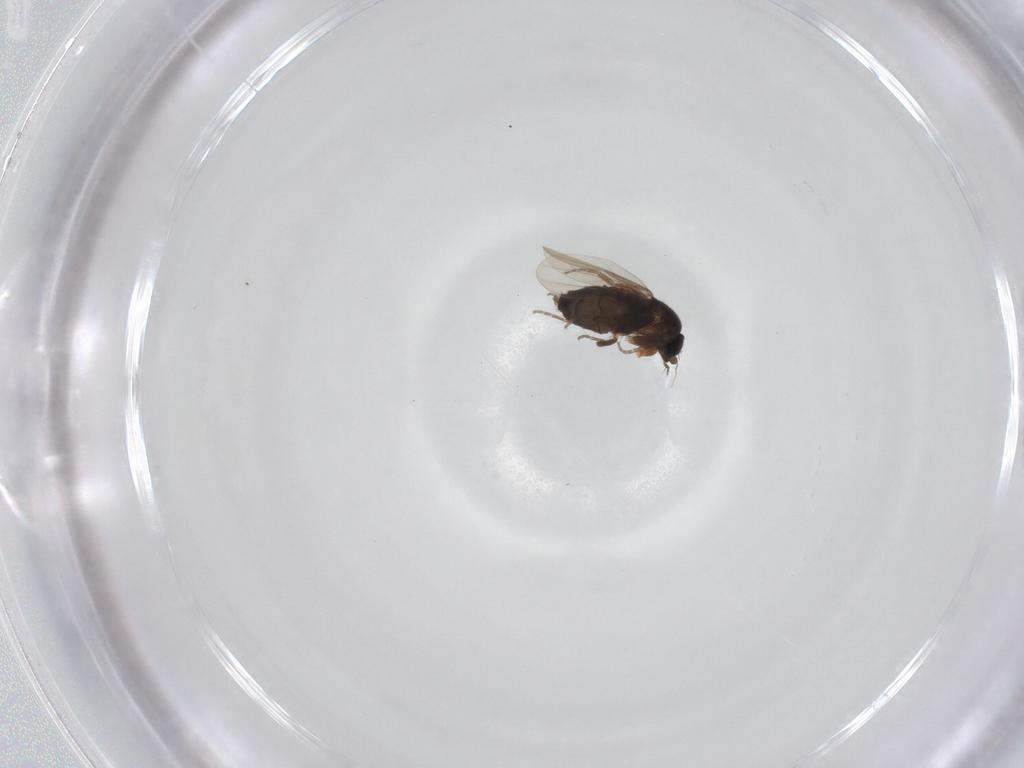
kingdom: Animalia
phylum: Arthropoda
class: Insecta
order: Diptera
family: Phoridae
